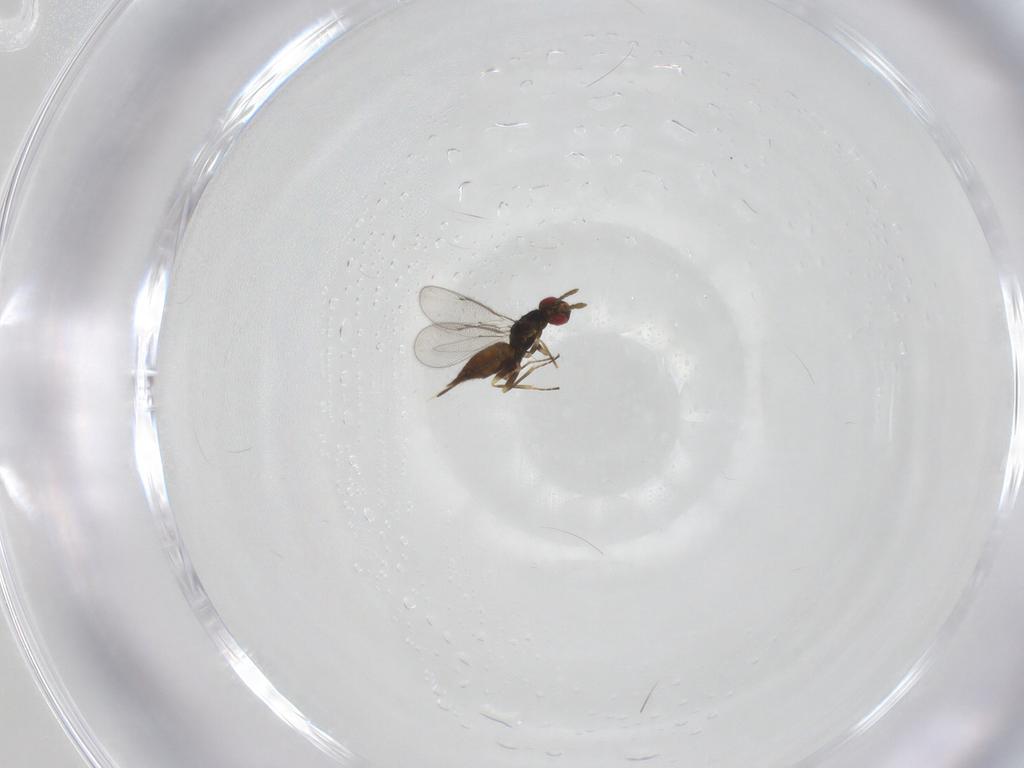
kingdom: Animalia
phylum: Arthropoda
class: Insecta
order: Hymenoptera
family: Eulophidae
